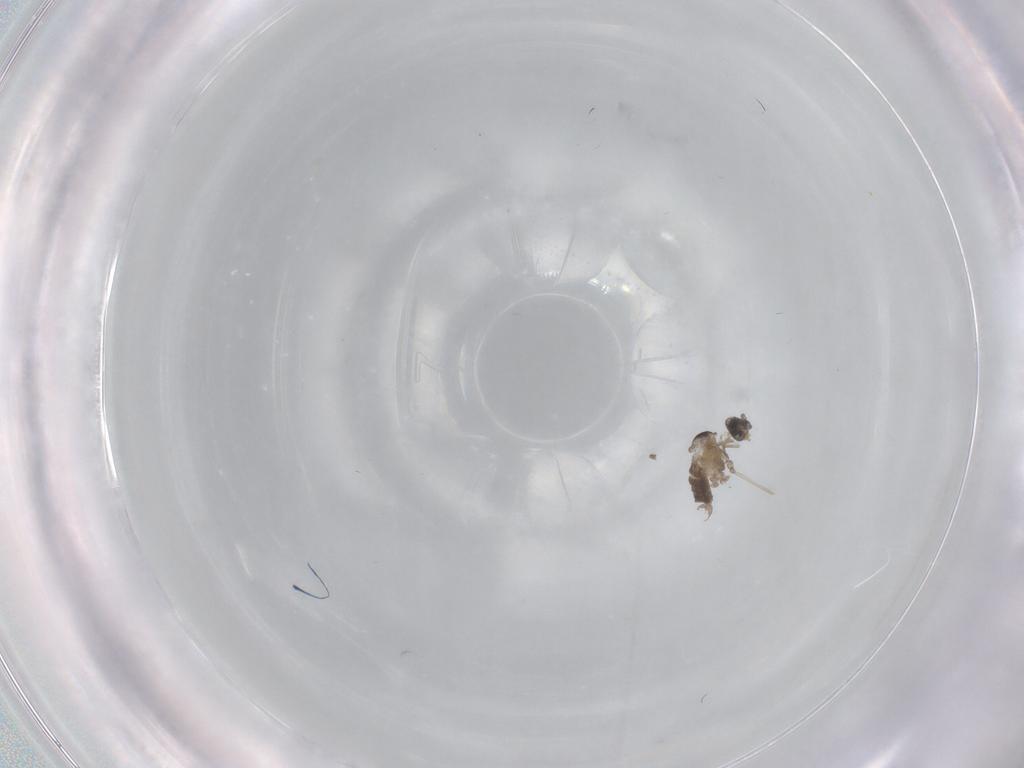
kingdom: Animalia
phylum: Arthropoda
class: Insecta
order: Diptera
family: Cecidomyiidae
